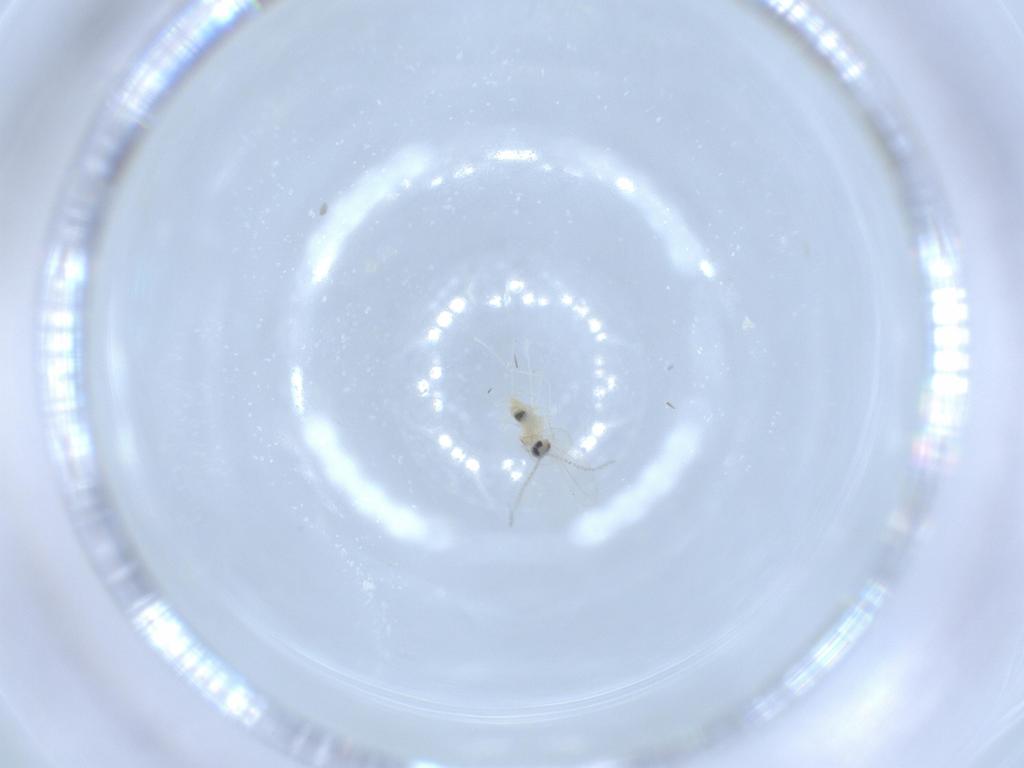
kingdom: Animalia
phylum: Arthropoda
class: Insecta
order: Diptera
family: Cecidomyiidae
